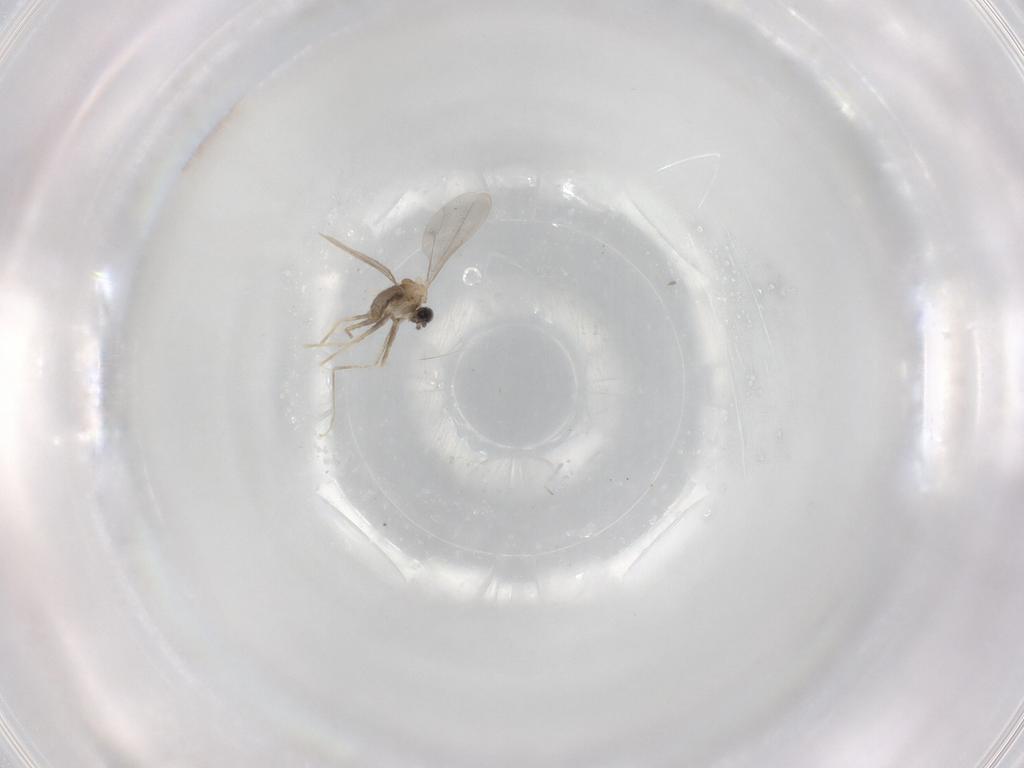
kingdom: Animalia
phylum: Arthropoda
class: Insecta
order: Diptera
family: Cecidomyiidae
